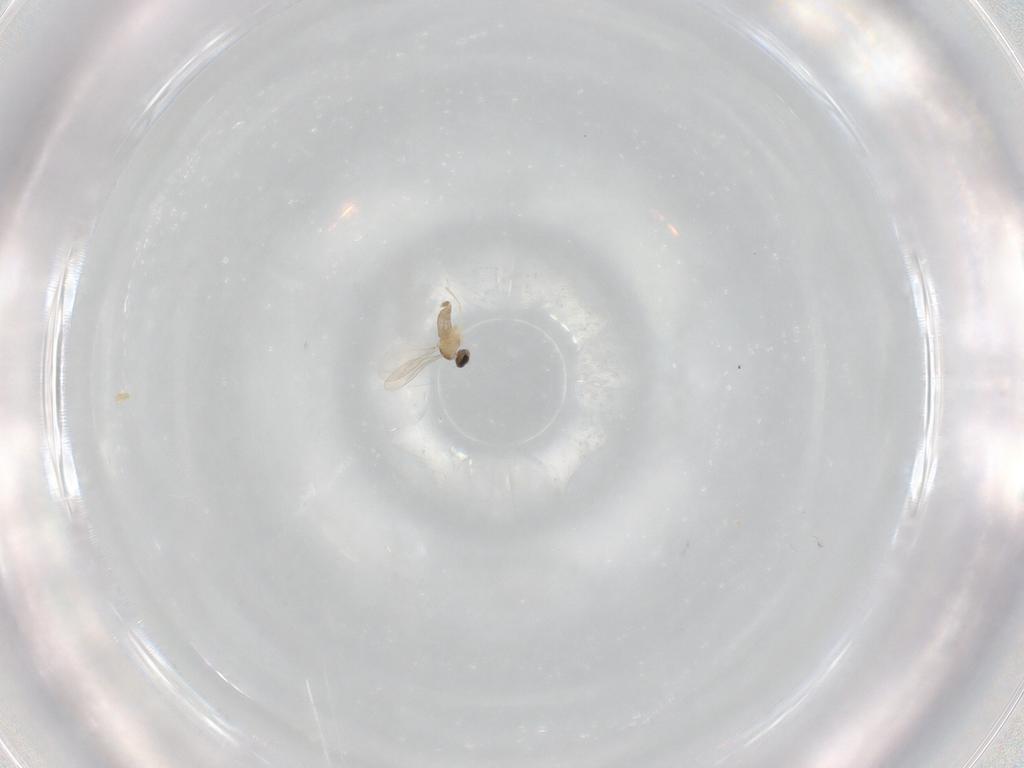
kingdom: Animalia
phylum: Arthropoda
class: Insecta
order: Diptera
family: Cecidomyiidae
